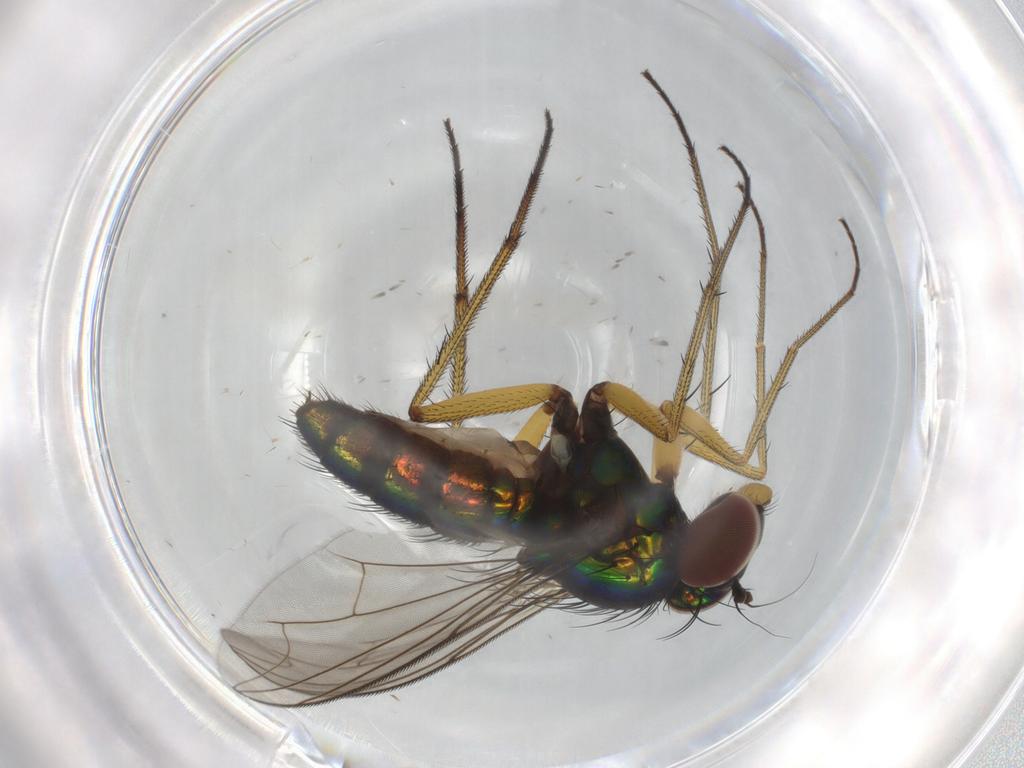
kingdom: Animalia
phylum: Arthropoda
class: Insecta
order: Diptera
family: Dolichopodidae
